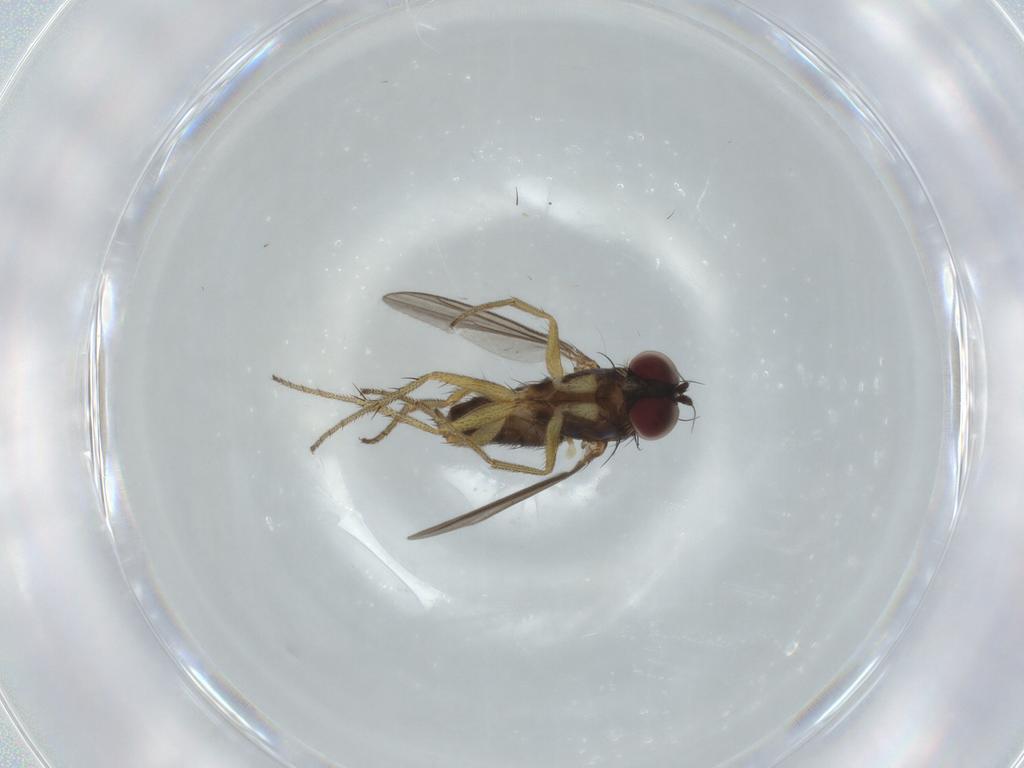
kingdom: Animalia
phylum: Arthropoda
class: Insecta
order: Diptera
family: Dolichopodidae
